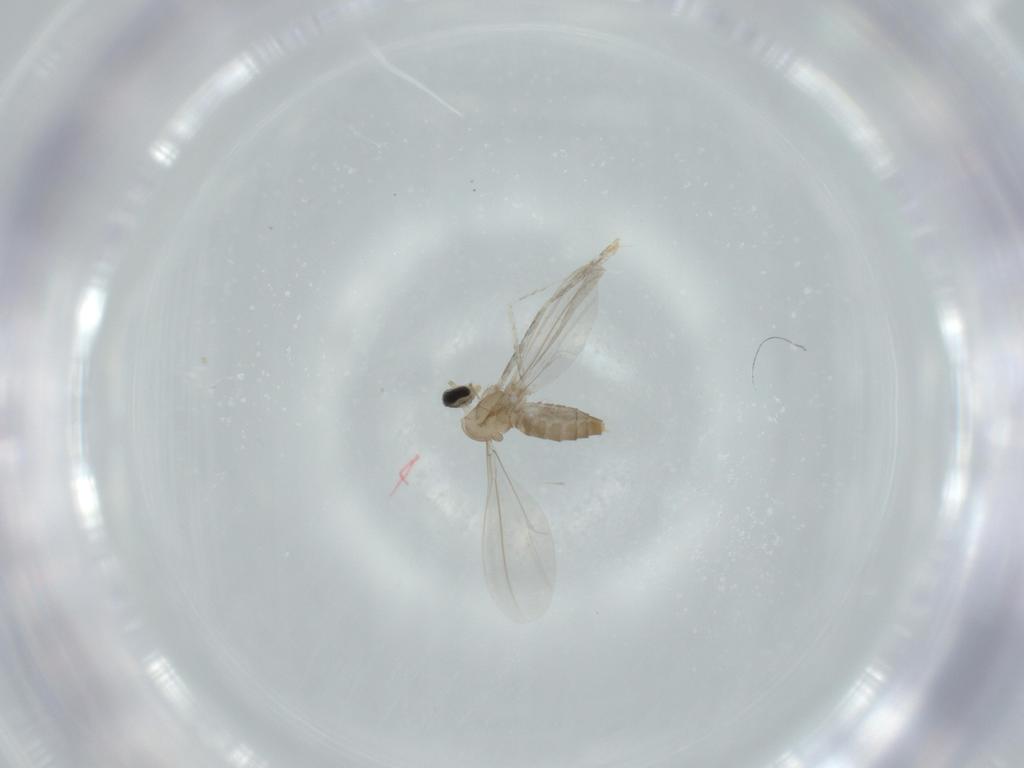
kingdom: Animalia
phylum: Arthropoda
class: Insecta
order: Diptera
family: Cecidomyiidae
